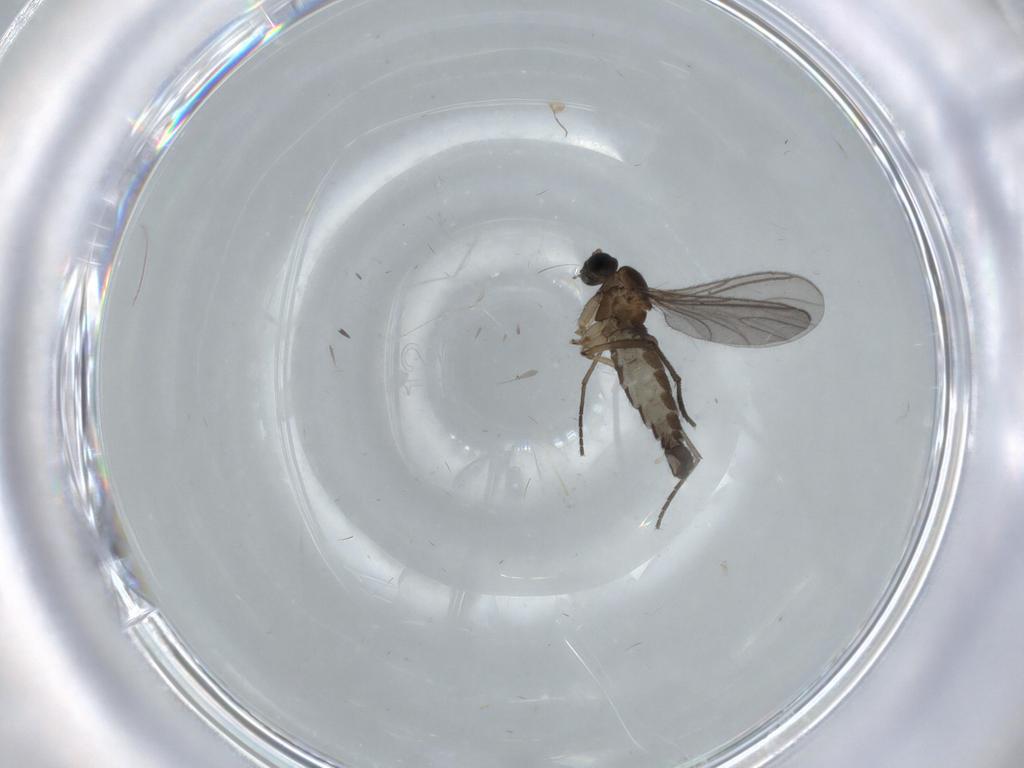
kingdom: Animalia
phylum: Arthropoda
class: Insecta
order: Diptera
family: Sciaridae
